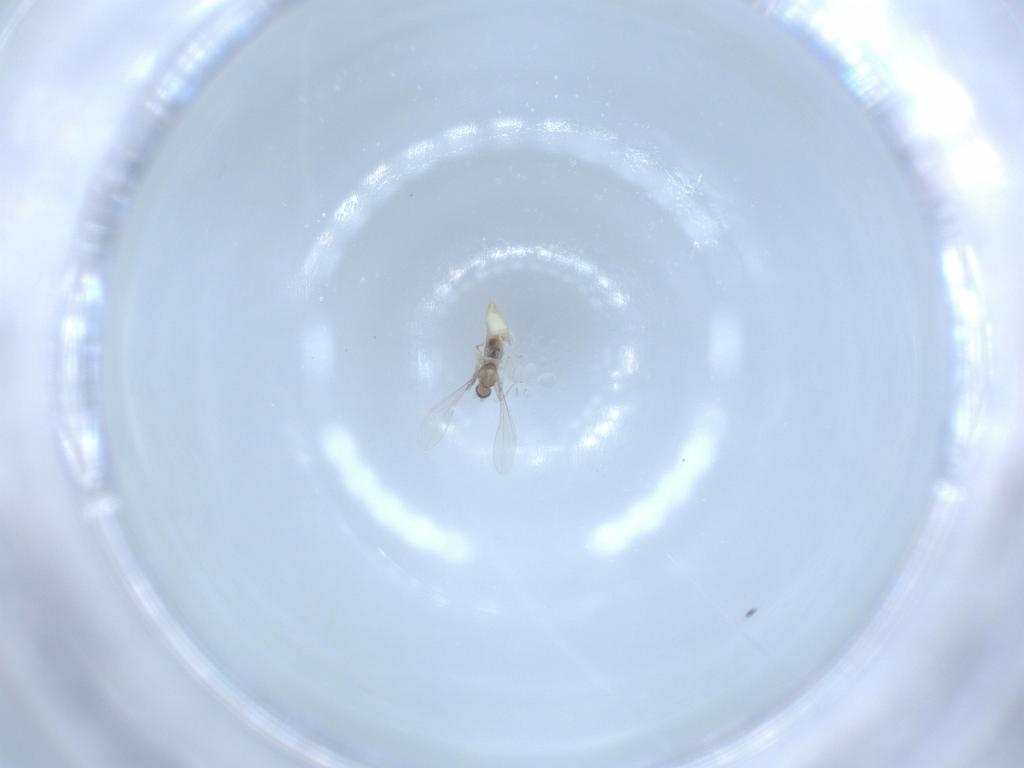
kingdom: Animalia
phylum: Arthropoda
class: Insecta
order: Diptera
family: Cecidomyiidae
